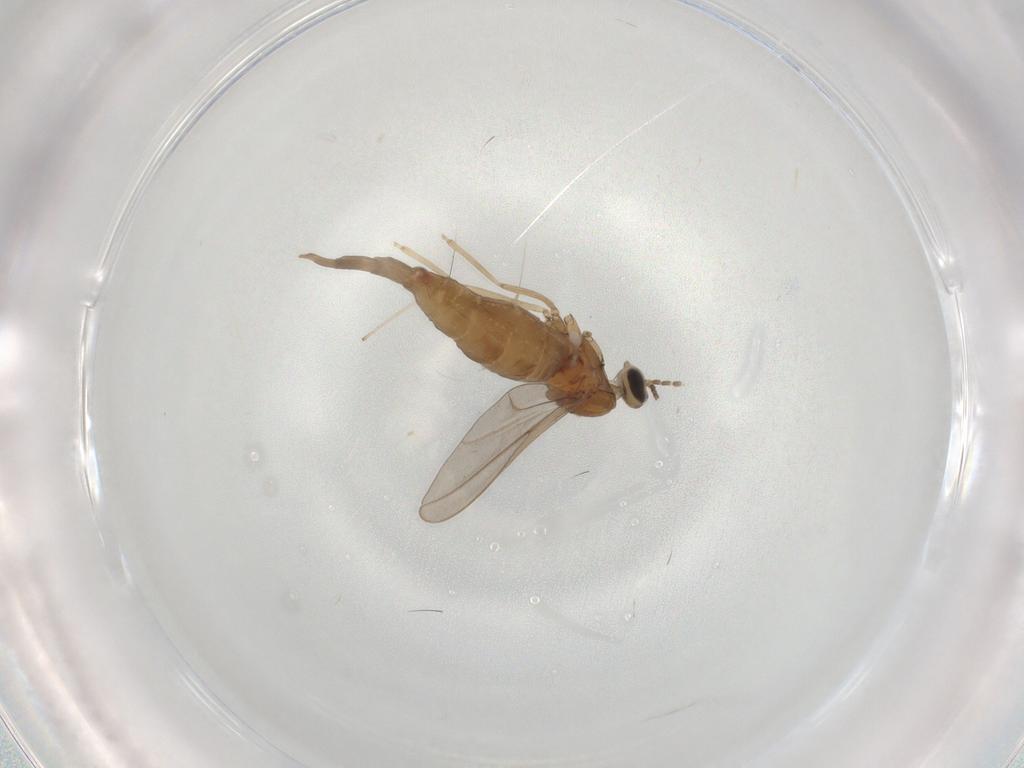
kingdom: Animalia
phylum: Arthropoda
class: Insecta
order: Diptera
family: Cecidomyiidae
